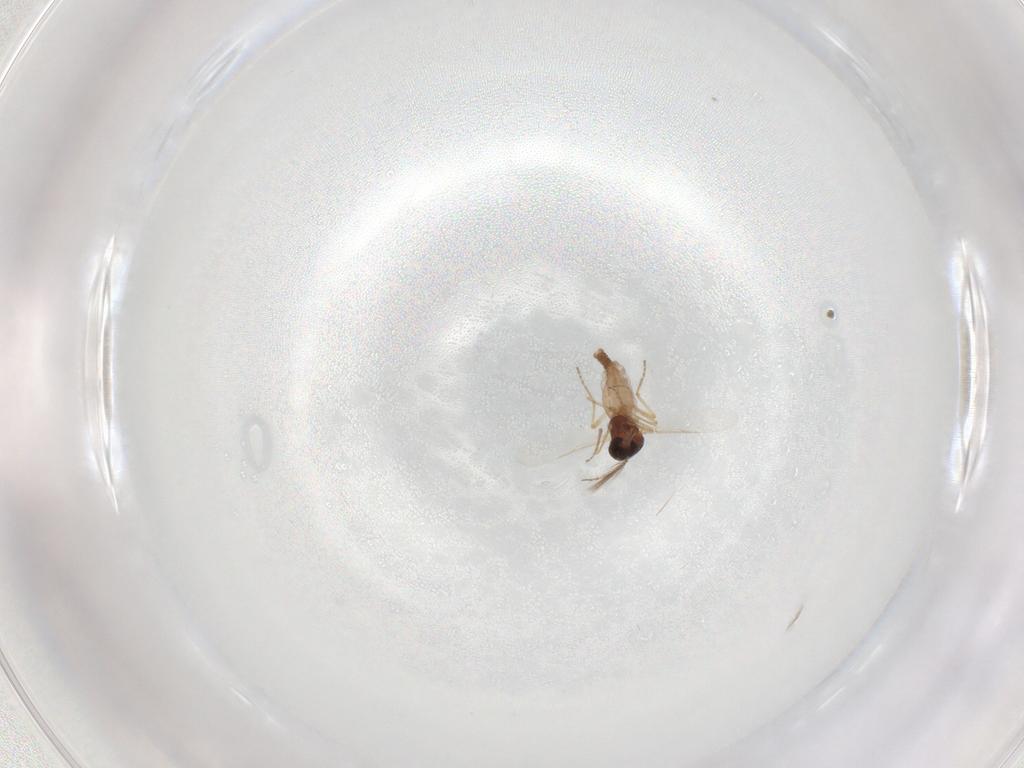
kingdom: Animalia
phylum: Arthropoda
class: Insecta
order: Diptera
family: Ceratopogonidae
